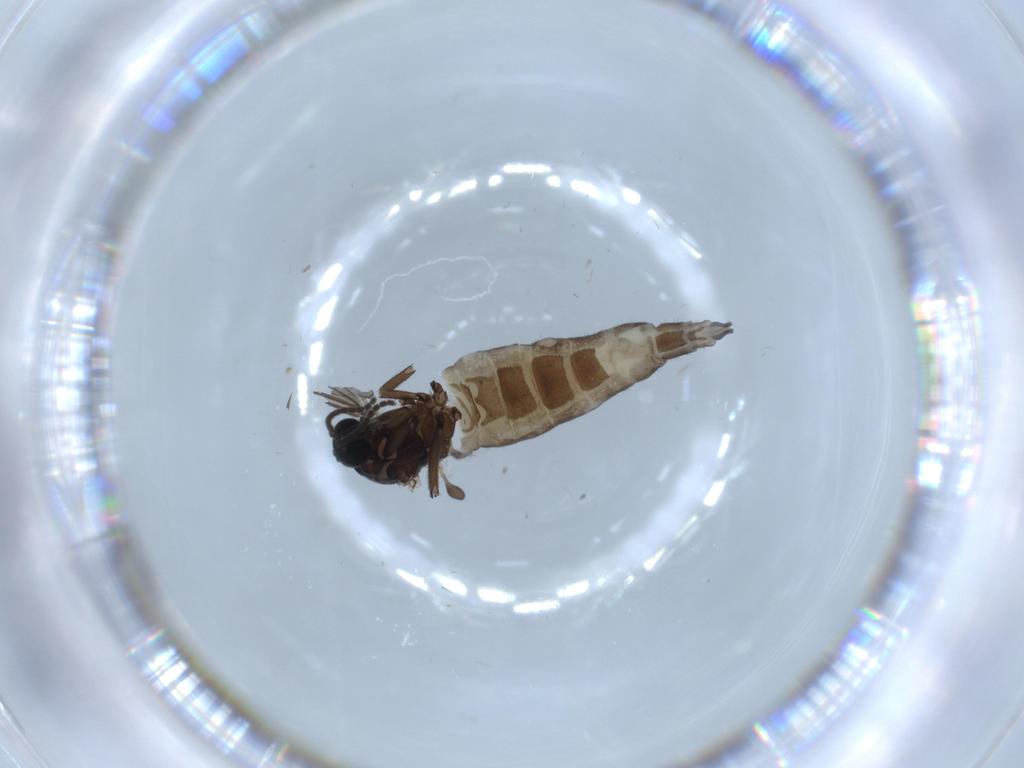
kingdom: Animalia
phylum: Arthropoda
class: Insecta
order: Diptera
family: Sciaridae
